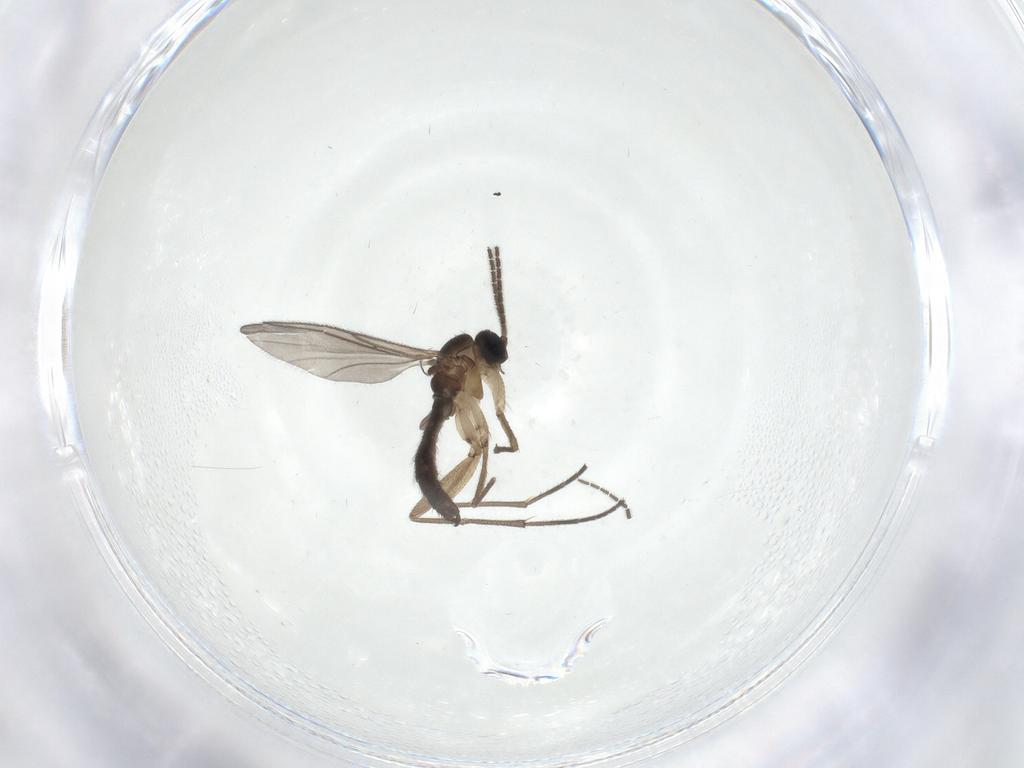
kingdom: Animalia
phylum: Arthropoda
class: Insecta
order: Diptera
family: Sciaridae
